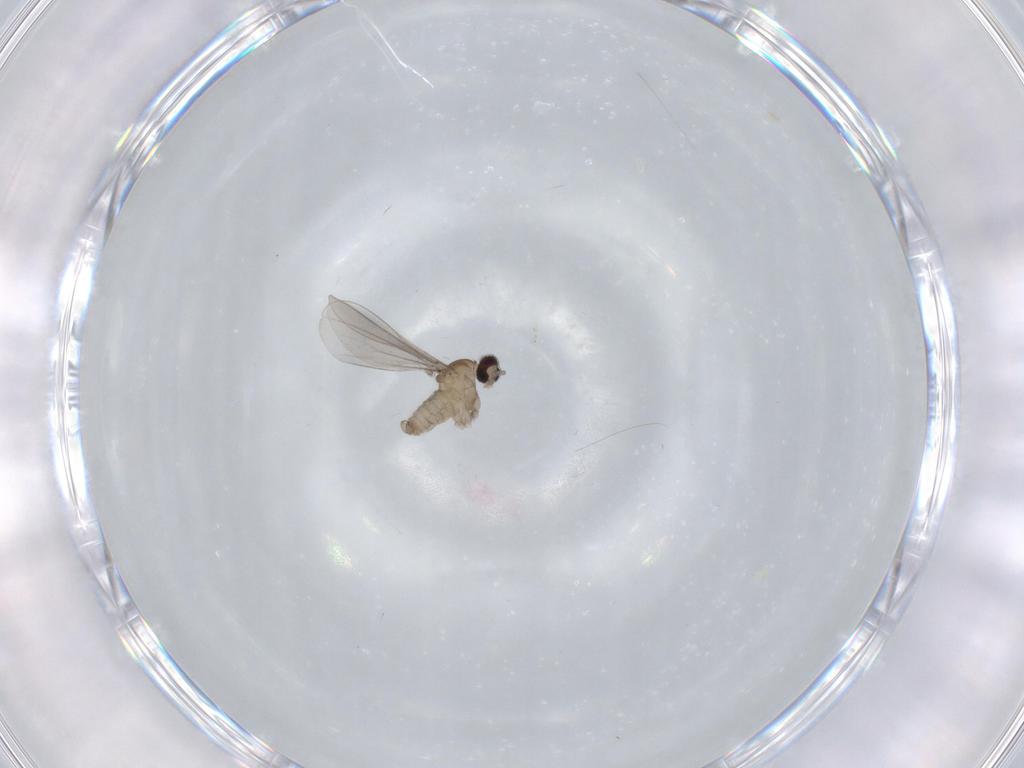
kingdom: Animalia
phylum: Arthropoda
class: Insecta
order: Diptera
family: Cecidomyiidae
